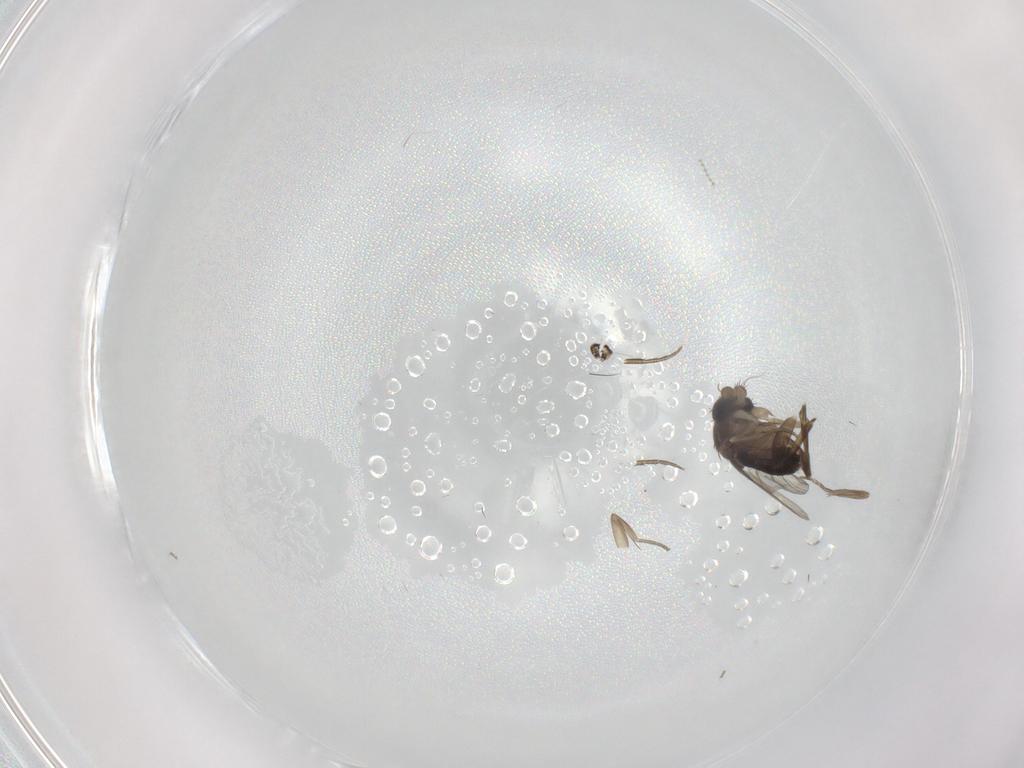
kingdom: Animalia
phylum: Arthropoda
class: Insecta
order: Diptera
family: Phoridae
